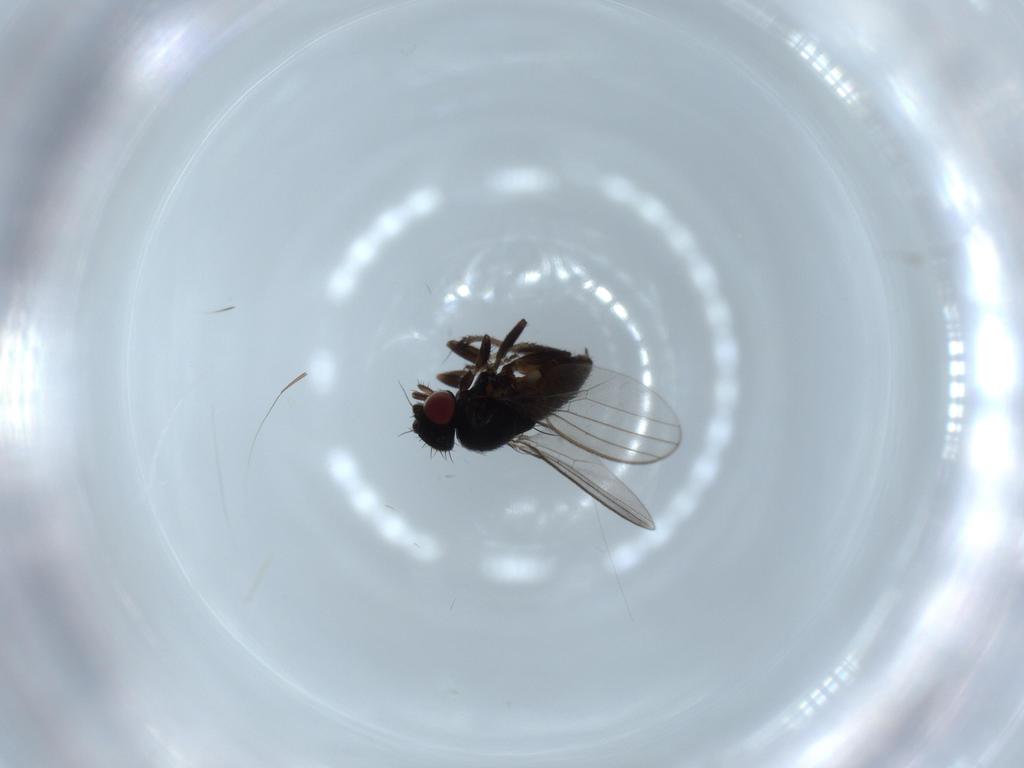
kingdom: Animalia
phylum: Arthropoda
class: Insecta
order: Diptera
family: Milichiidae
